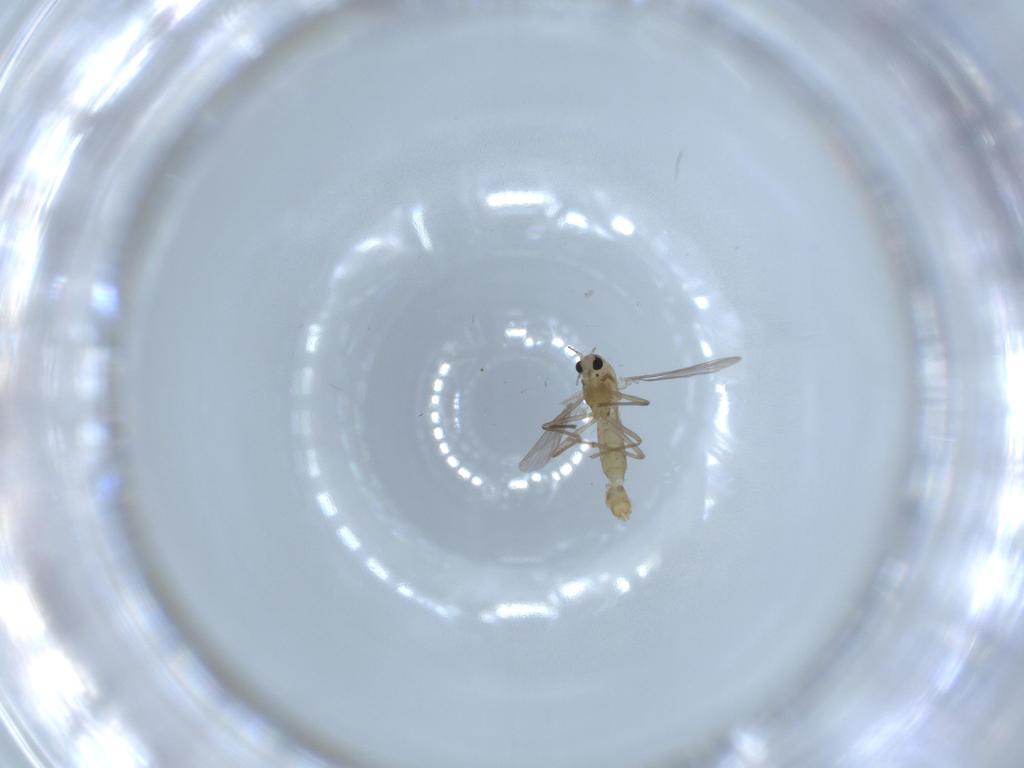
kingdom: Animalia
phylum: Arthropoda
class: Insecta
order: Diptera
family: Chironomidae
